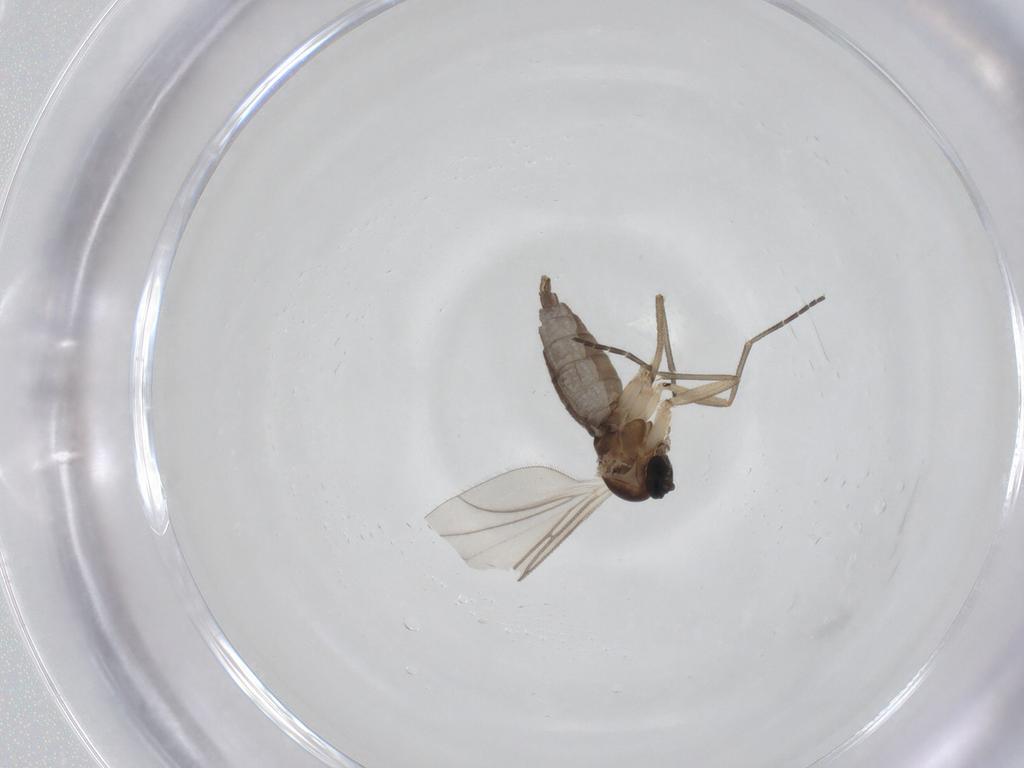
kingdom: Animalia
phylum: Arthropoda
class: Insecta
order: Diptera
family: Sciaridae
